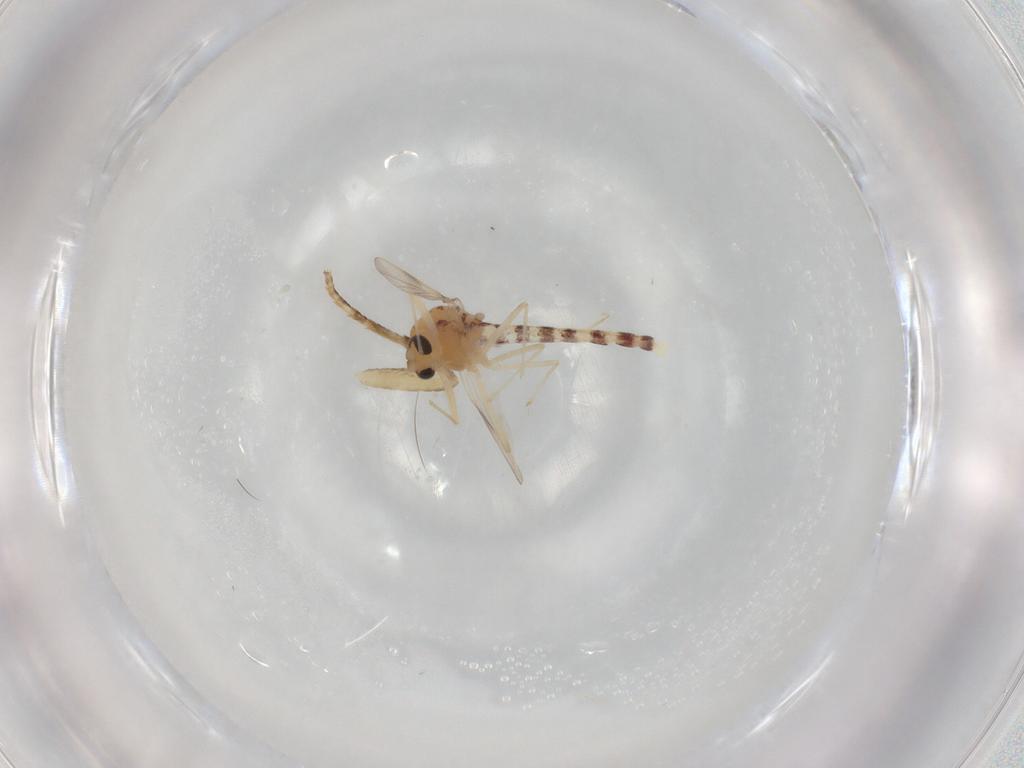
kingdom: Animalia
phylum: Arthropoda
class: Insecta
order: Diptera
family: Chironomidae
